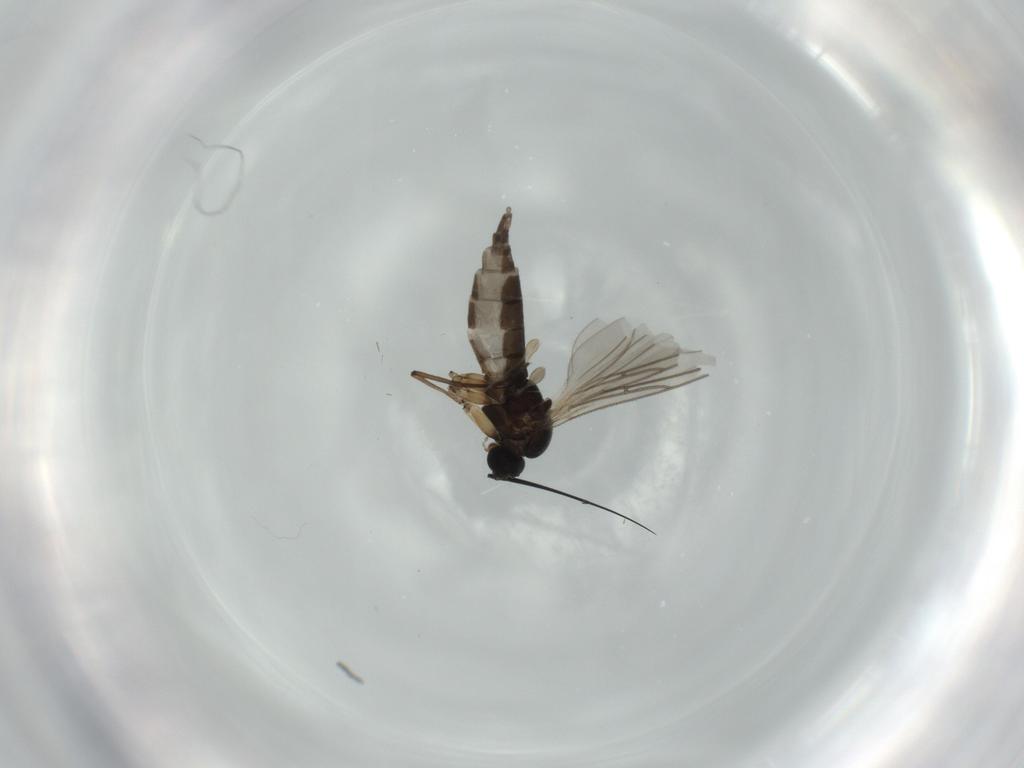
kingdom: Animalia
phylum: Arthropoda
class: Insecta
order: Diptera
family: Sciaridae
